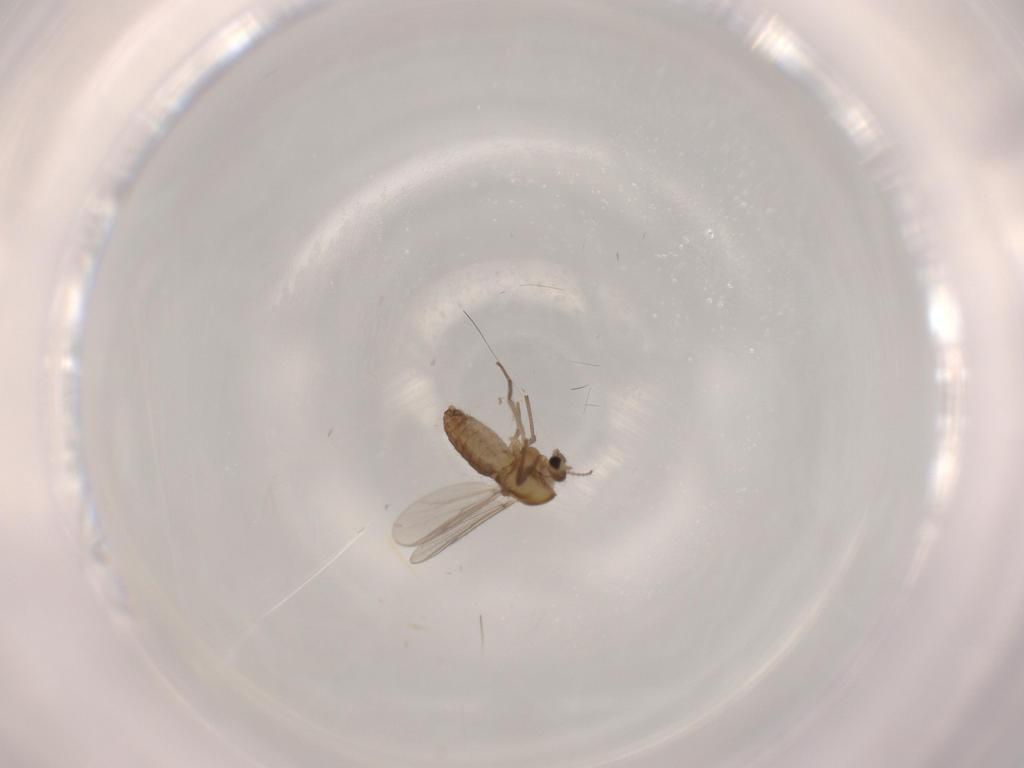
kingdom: Animalia
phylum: Arthropoda
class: Insecta
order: Diptera
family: Chironomidae
